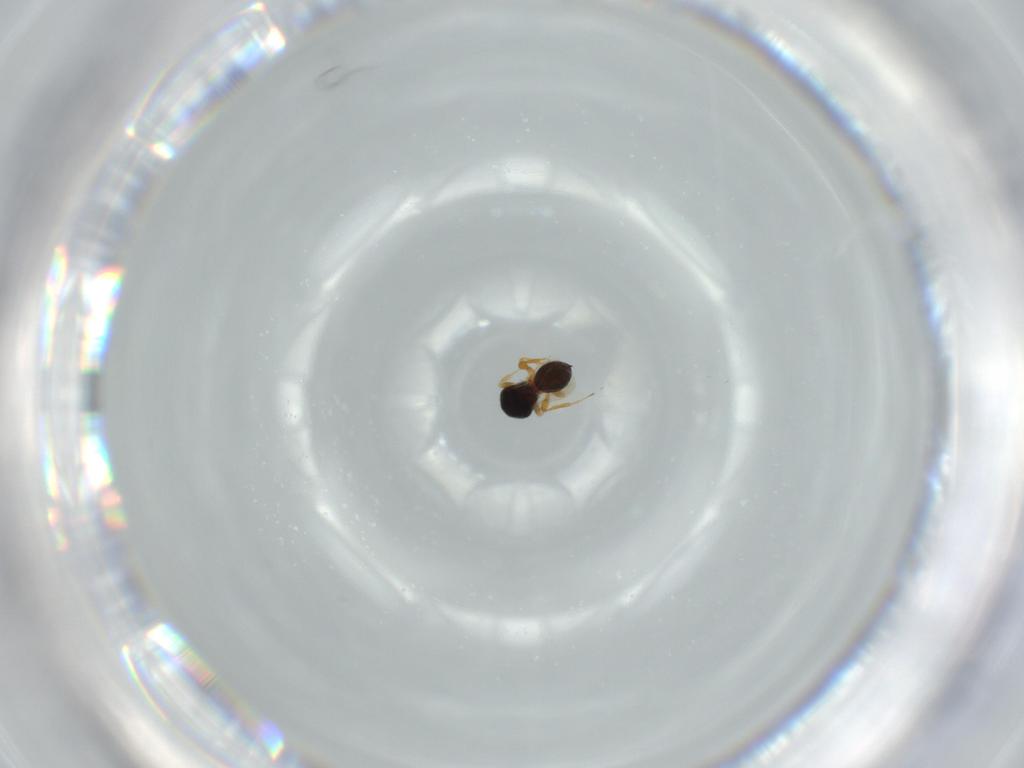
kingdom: Animalia
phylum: Arthropoda
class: Insecta
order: Hymenoptera
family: Platygastridae
